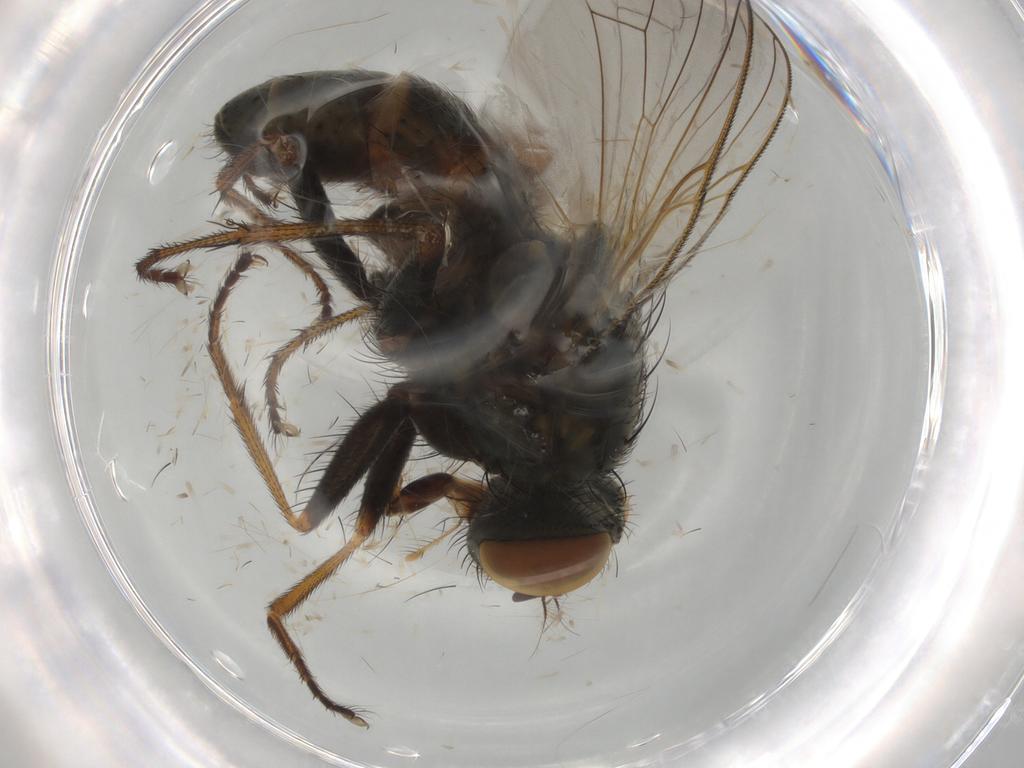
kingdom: Animalia
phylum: Arthropoda
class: Insecta
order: Diptera
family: Muscidae
